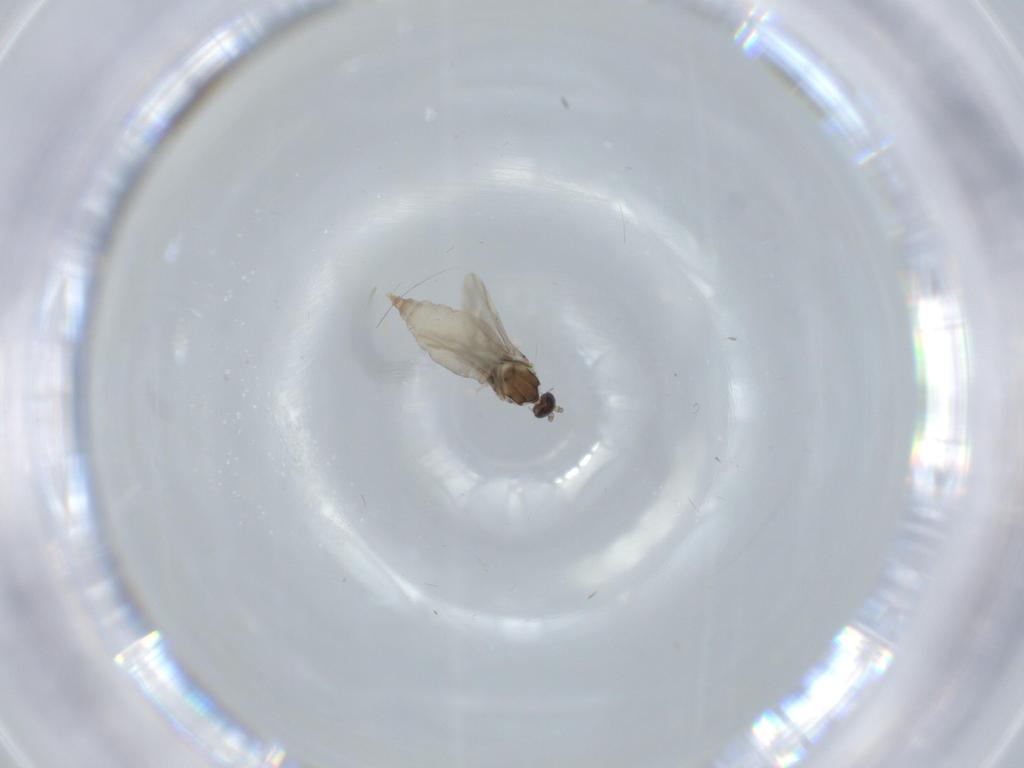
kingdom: Animalia
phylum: Arthropoda
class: Insecta
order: Diptera
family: Cecidomyiidae
